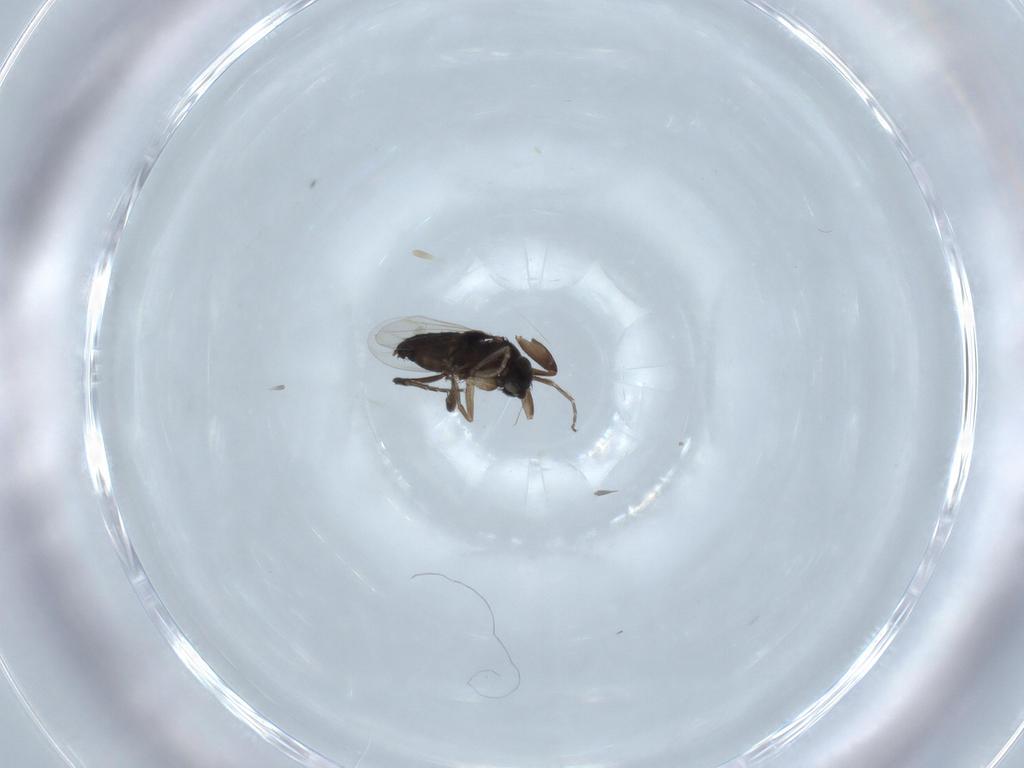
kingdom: Animalia
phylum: Arthropoda
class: Insecta
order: Diptera
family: Phoridae
